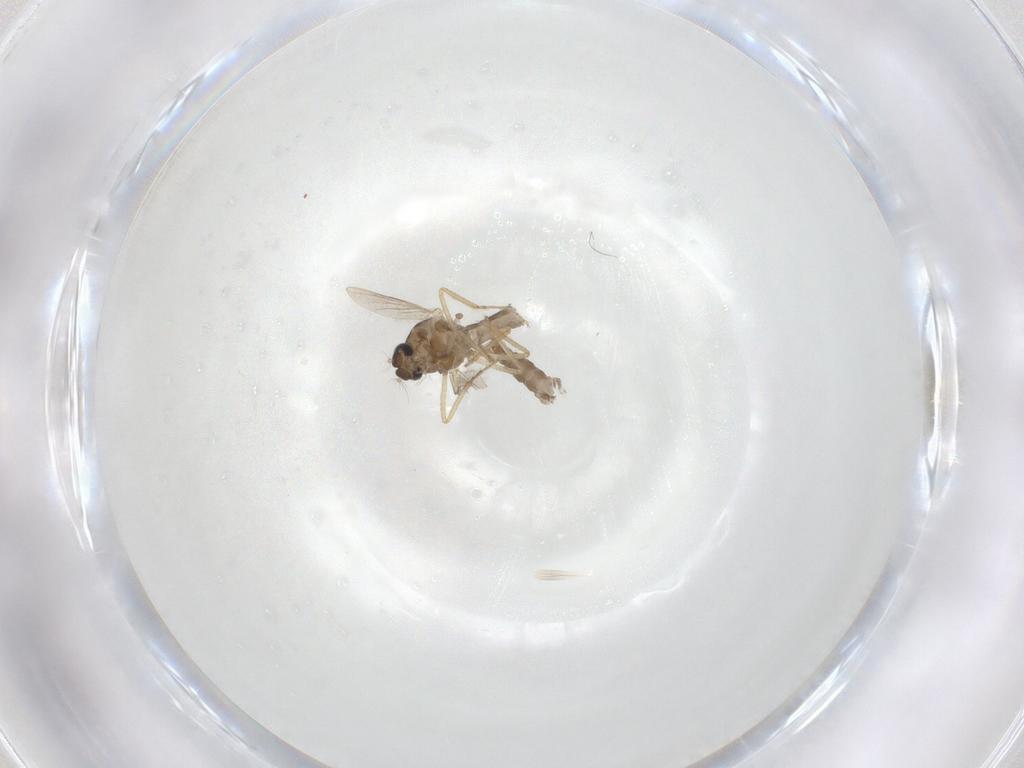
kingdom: Animalia
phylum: Arthropoda
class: Insecta
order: Diptera
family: Ceratopogonidae
